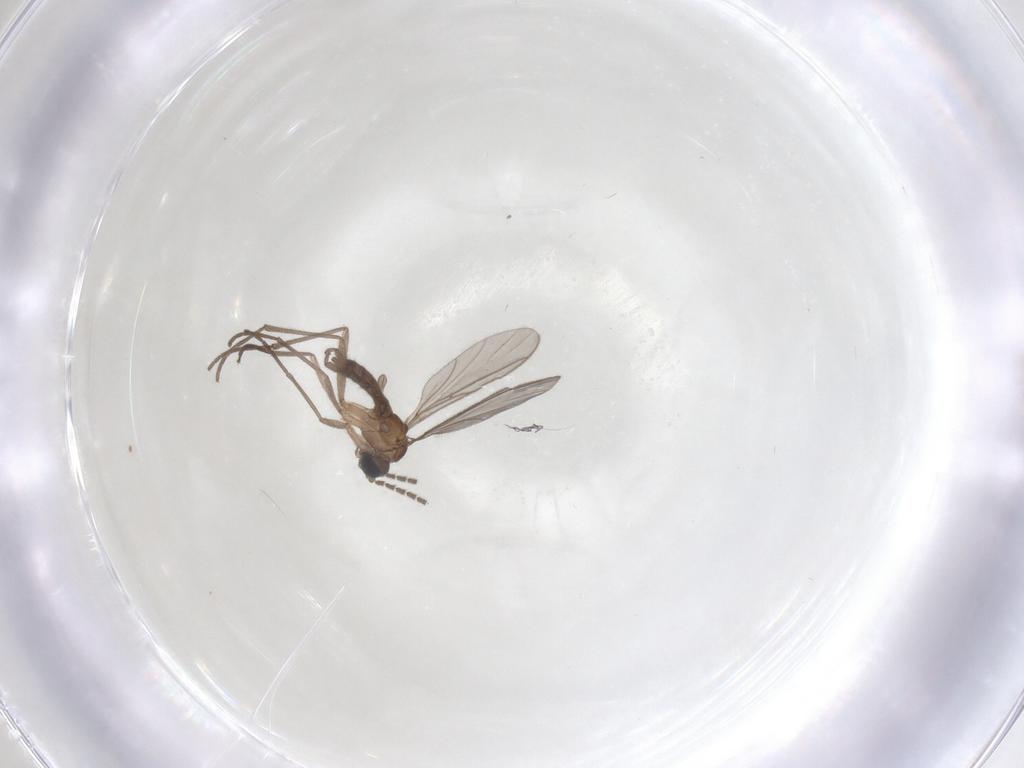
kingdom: Animalia
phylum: Arthropoda
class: Insecta
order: Diptera
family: Sciaridae
